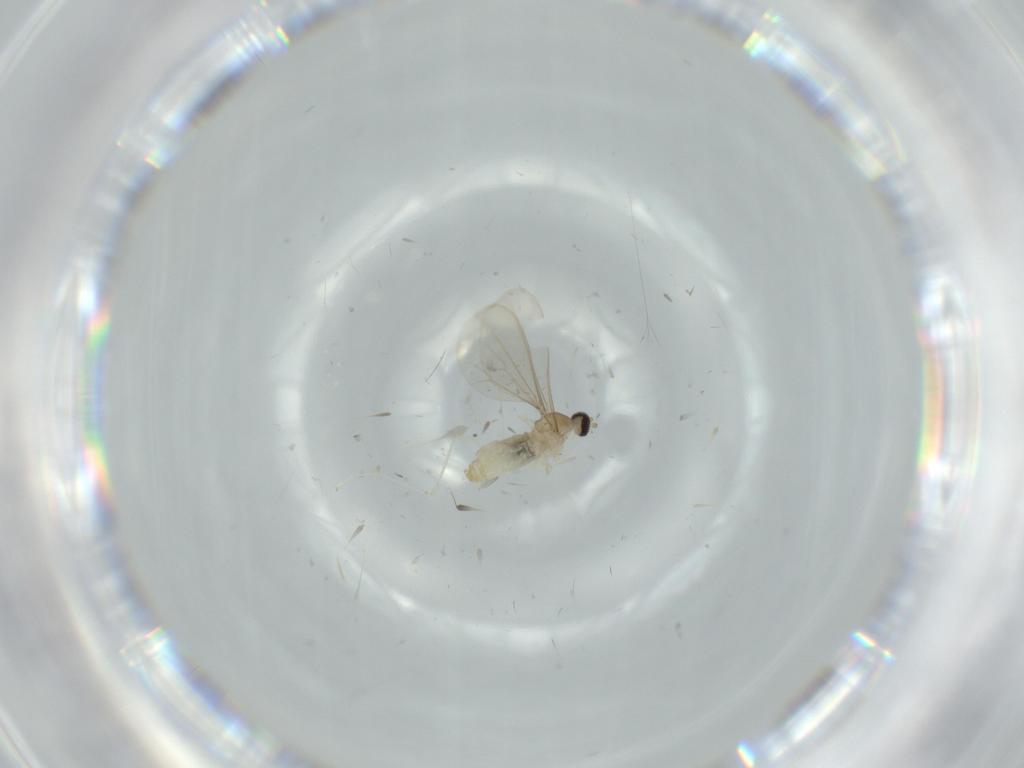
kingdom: Animalia
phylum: Arthropoda
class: Insecta
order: Diptera
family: Cecidomyiidae
